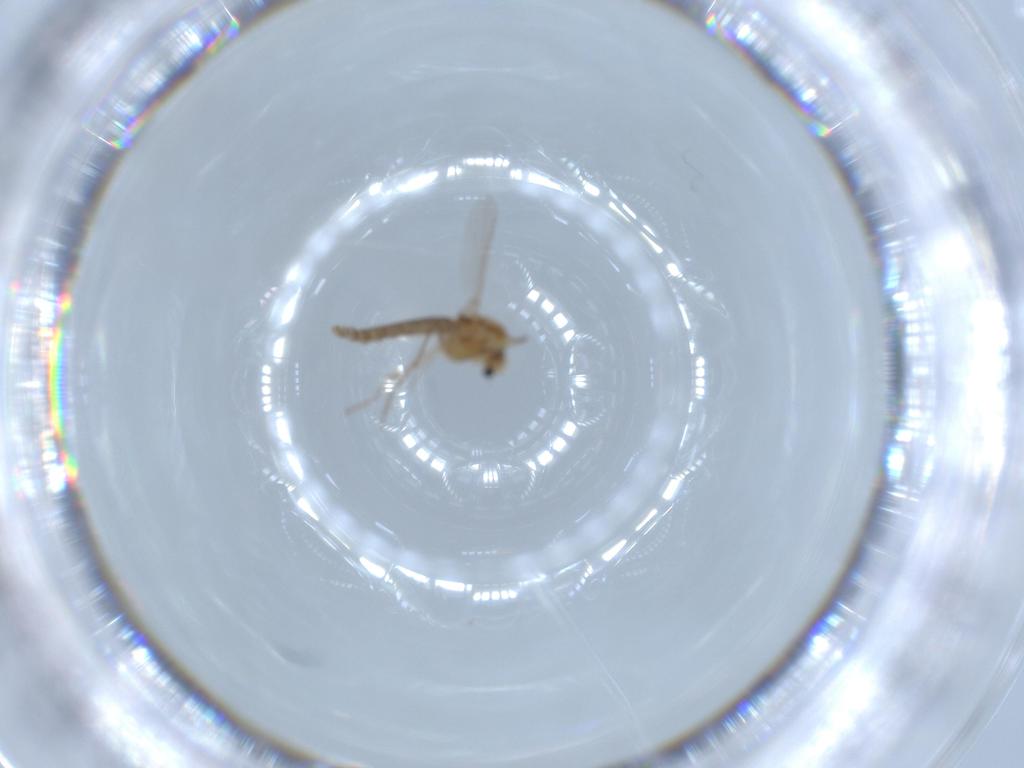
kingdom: Animalia
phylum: Arthropoda
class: Insecta
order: Diptera
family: Chironomidae
